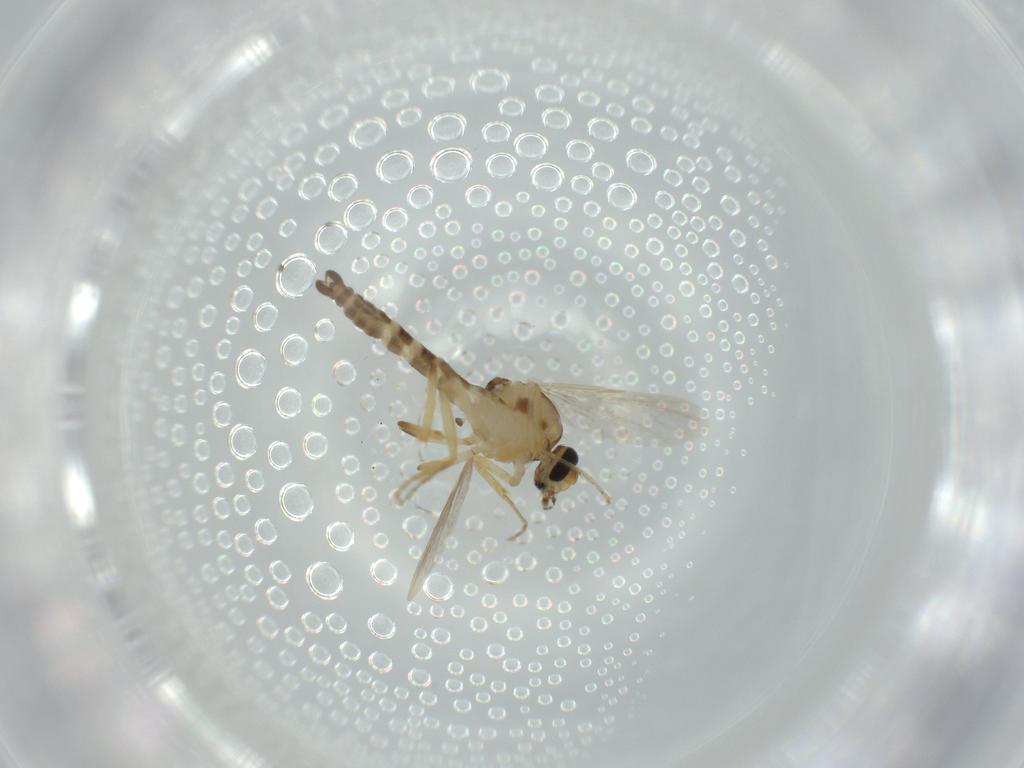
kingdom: Animalia
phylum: Arthropoda
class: Insecta
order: Diptera
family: Hybotidae
